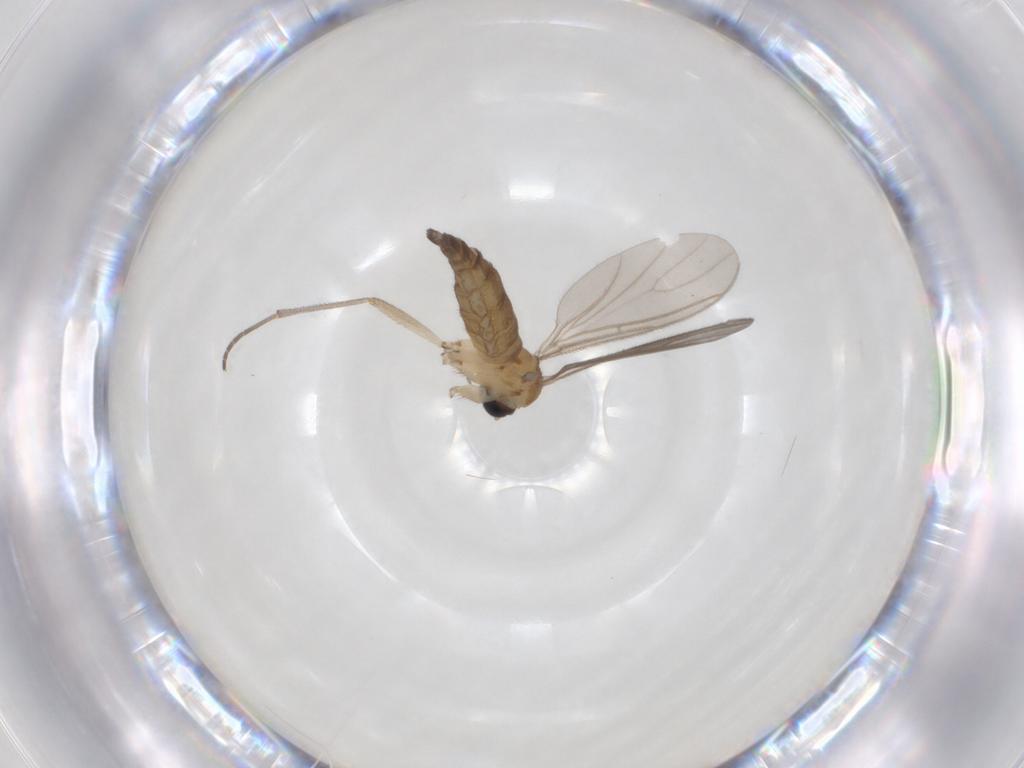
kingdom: Animalia
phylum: Arthropoda
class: Insecta
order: Diptera
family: Sciaridae
